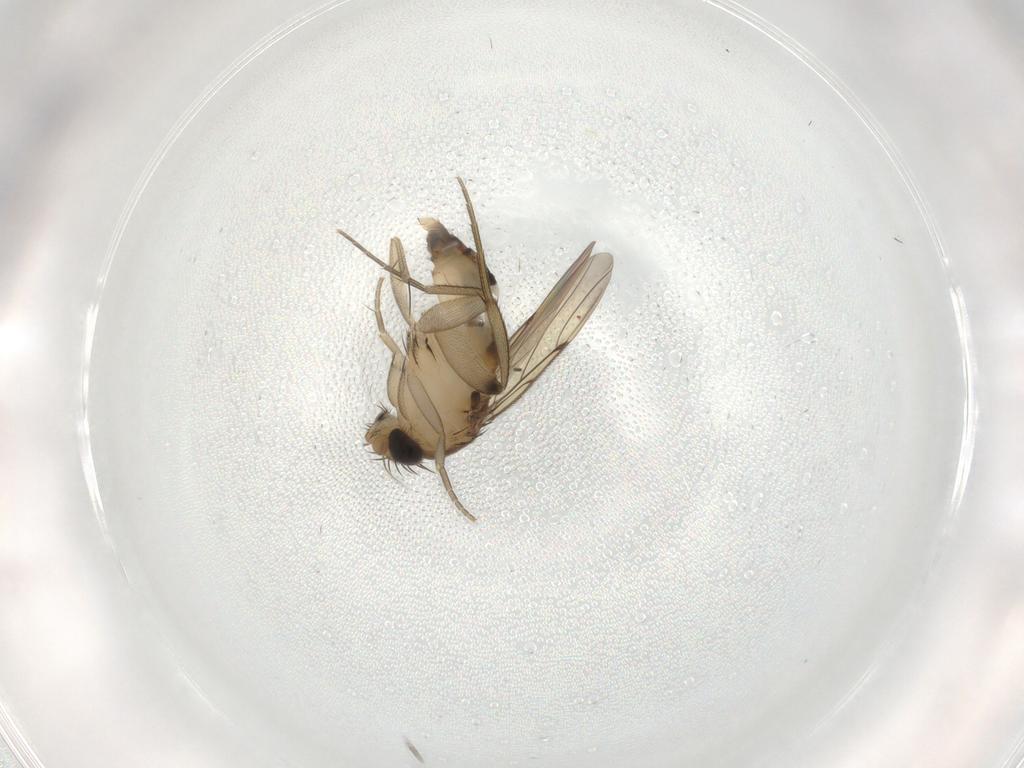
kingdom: Animalia
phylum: Arthropoda
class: Insecta
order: Diptera
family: Phoridae
